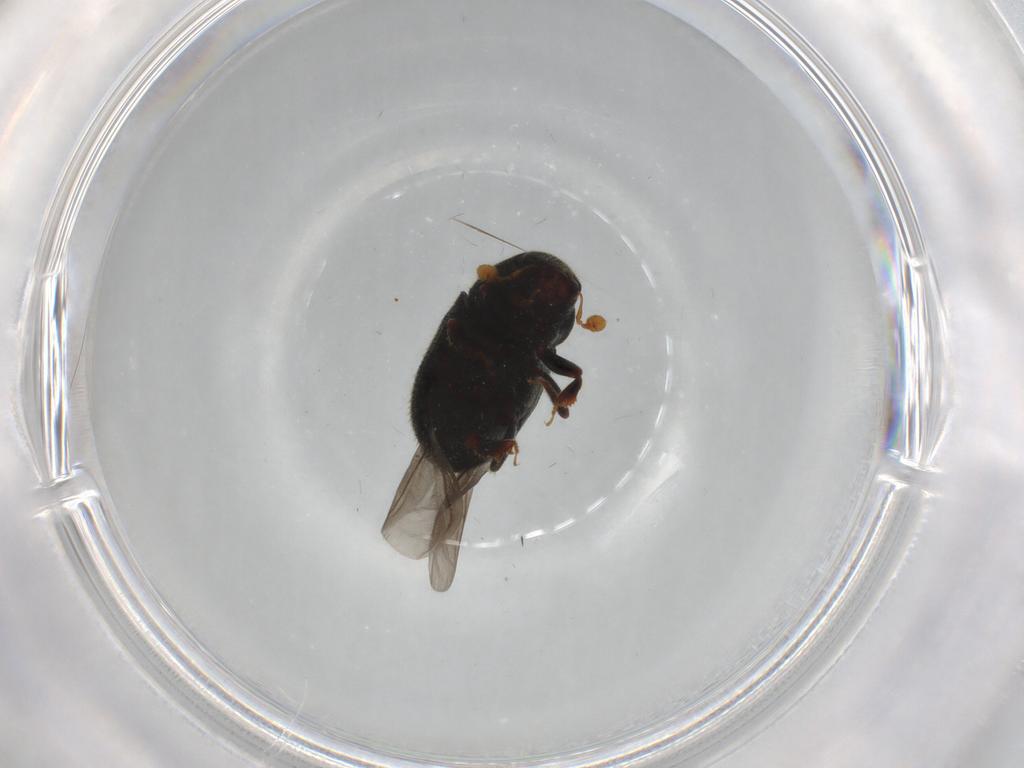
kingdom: Animalia
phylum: Arthropoda
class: Insecta
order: Coleoptera
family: Curculionidae
